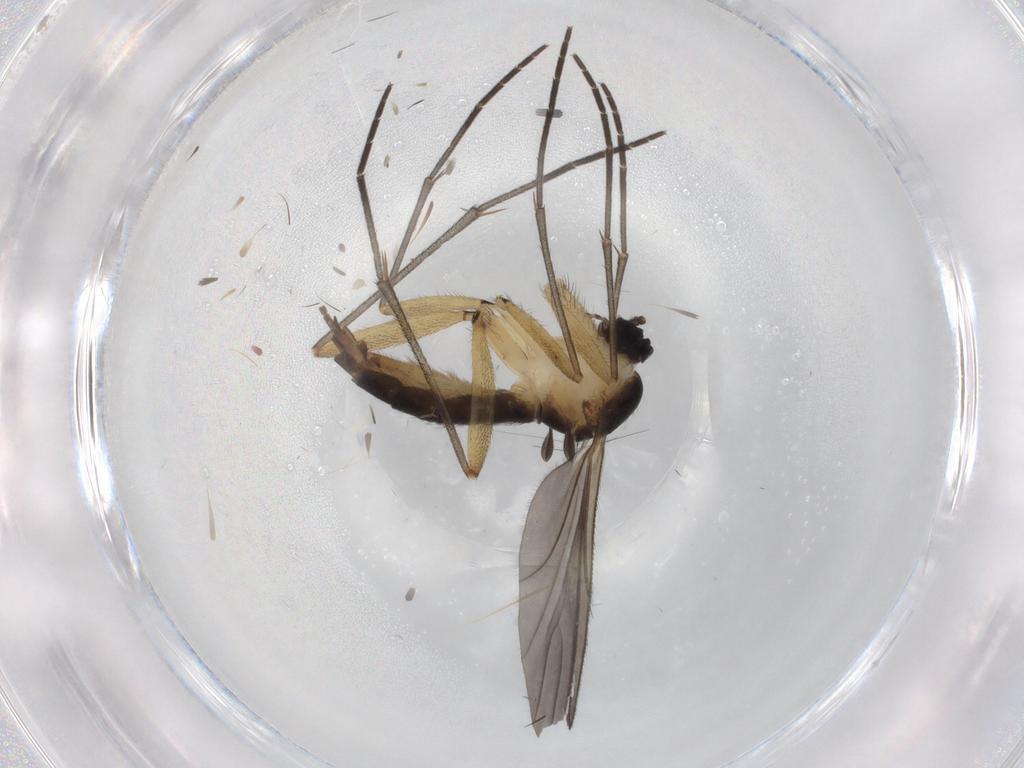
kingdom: Animalia
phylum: Arthropoda
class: Insecta
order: Diptera
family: Sciaridae
